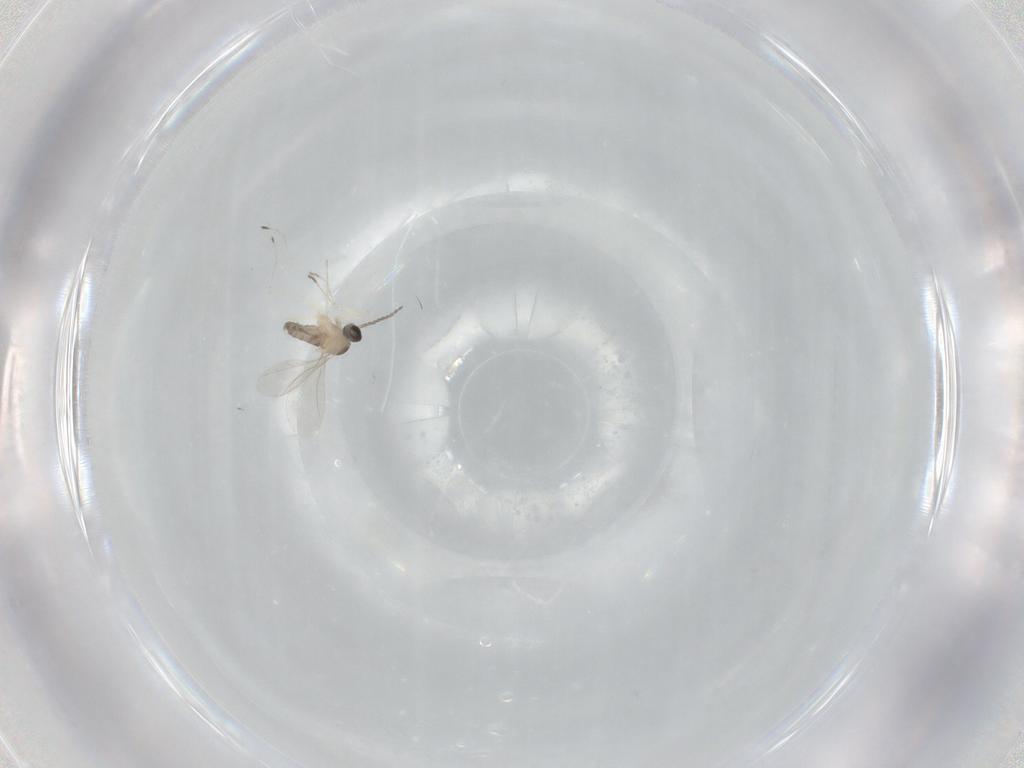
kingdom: Animalia
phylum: Arthropoda
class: Insecta
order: Diptera
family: Cecidomyiidae
